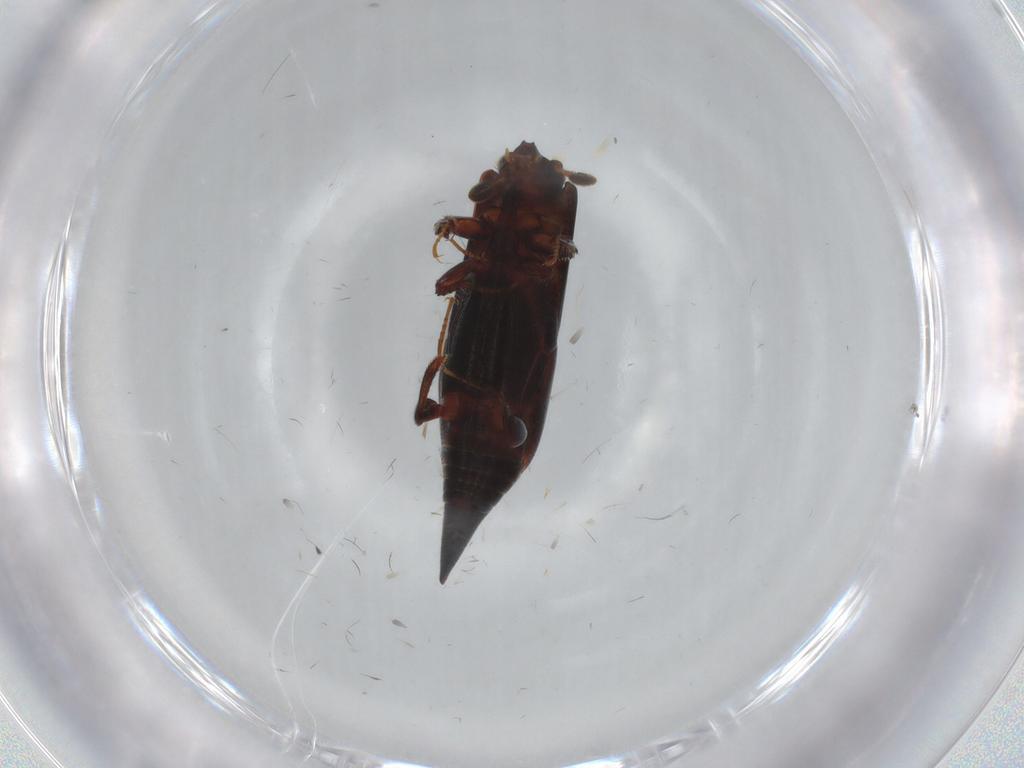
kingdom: Animalia
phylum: Arthropoda
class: Insecta
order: Coleoptera
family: Histeridae
